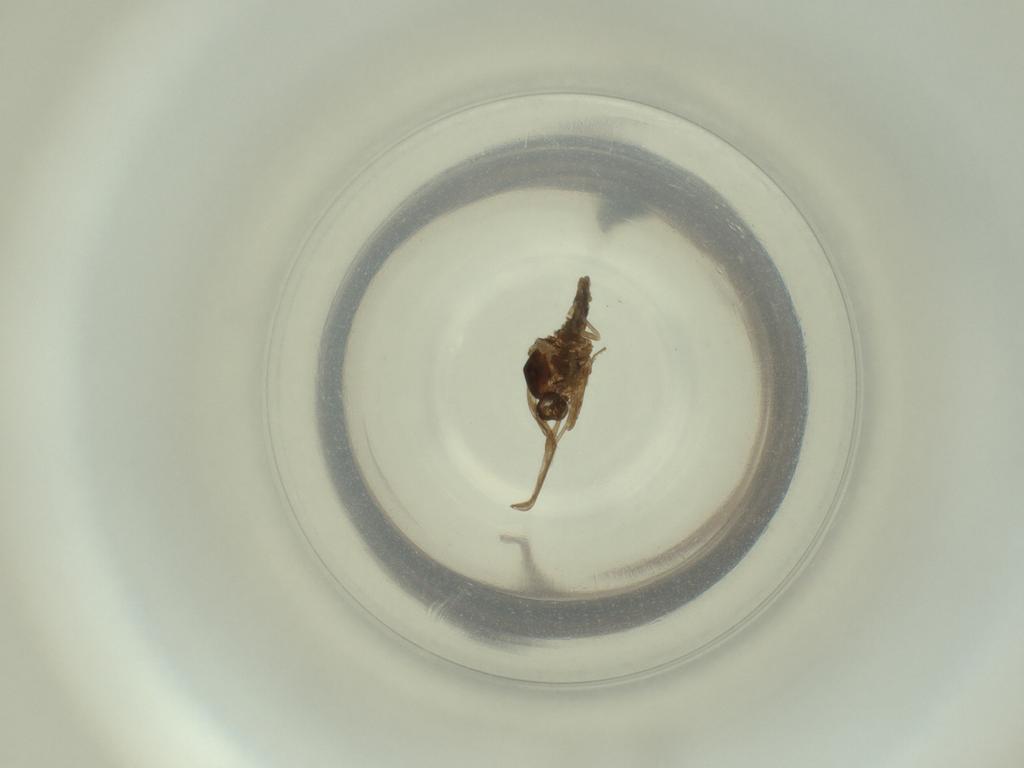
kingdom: Animalia
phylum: Arthropoda
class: Insecta
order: Diptera
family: Cecidomyiidae
